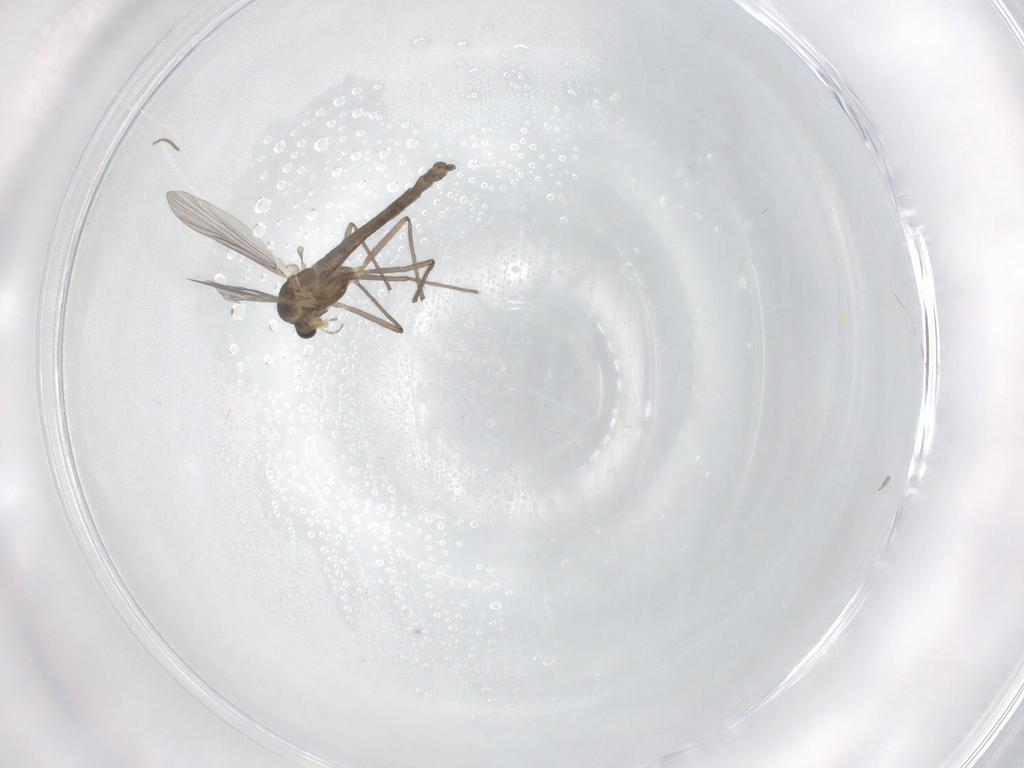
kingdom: Animalia
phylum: Arthropoda
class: Insecta
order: Diptera
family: Chironomidae
